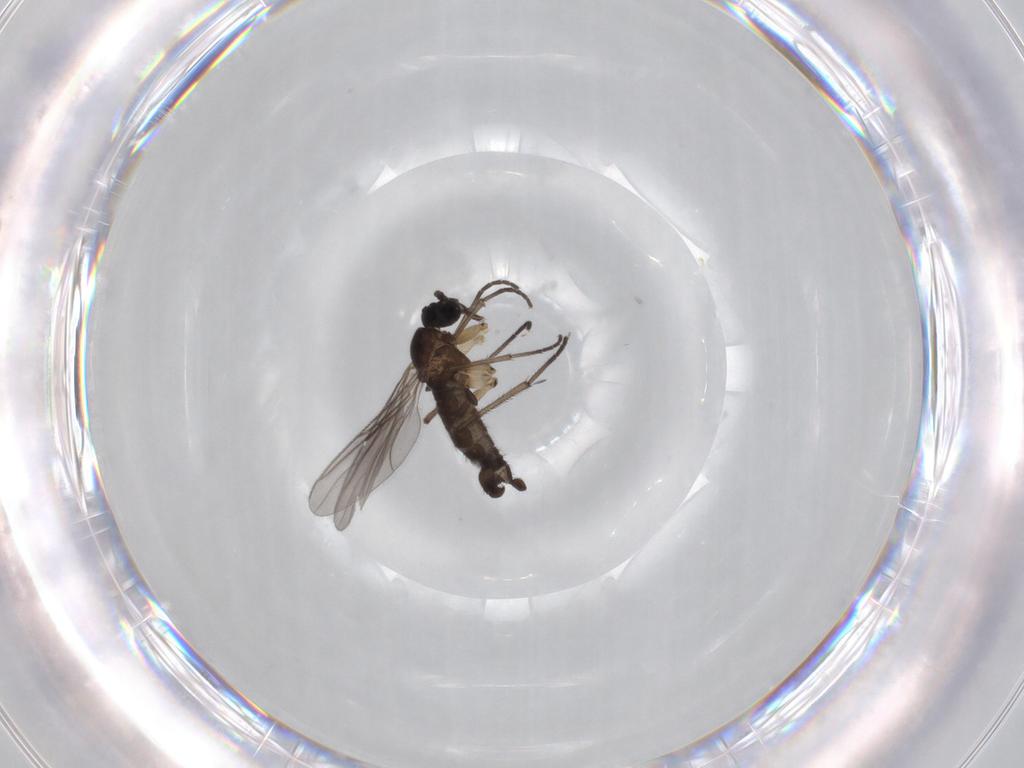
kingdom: Animalia
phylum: Arthropoda
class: Insecta
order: Diptera
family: Sciaridae
